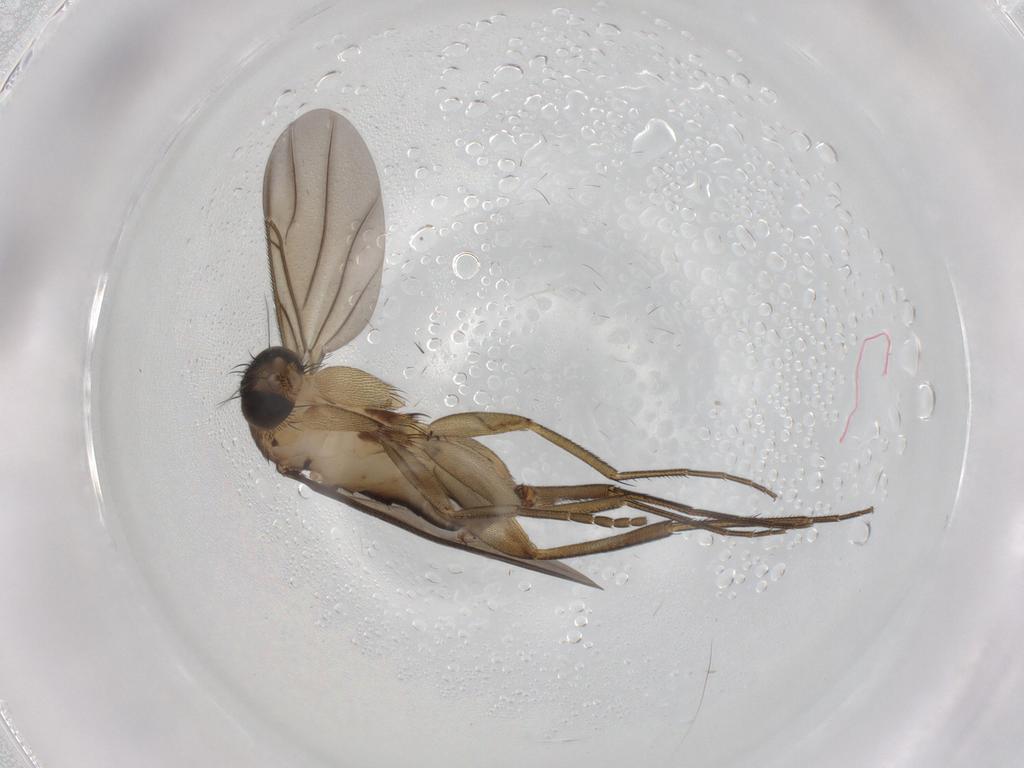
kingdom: Animalia
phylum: Arthropoda
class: Insecta
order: Diptera
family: Phoridae
